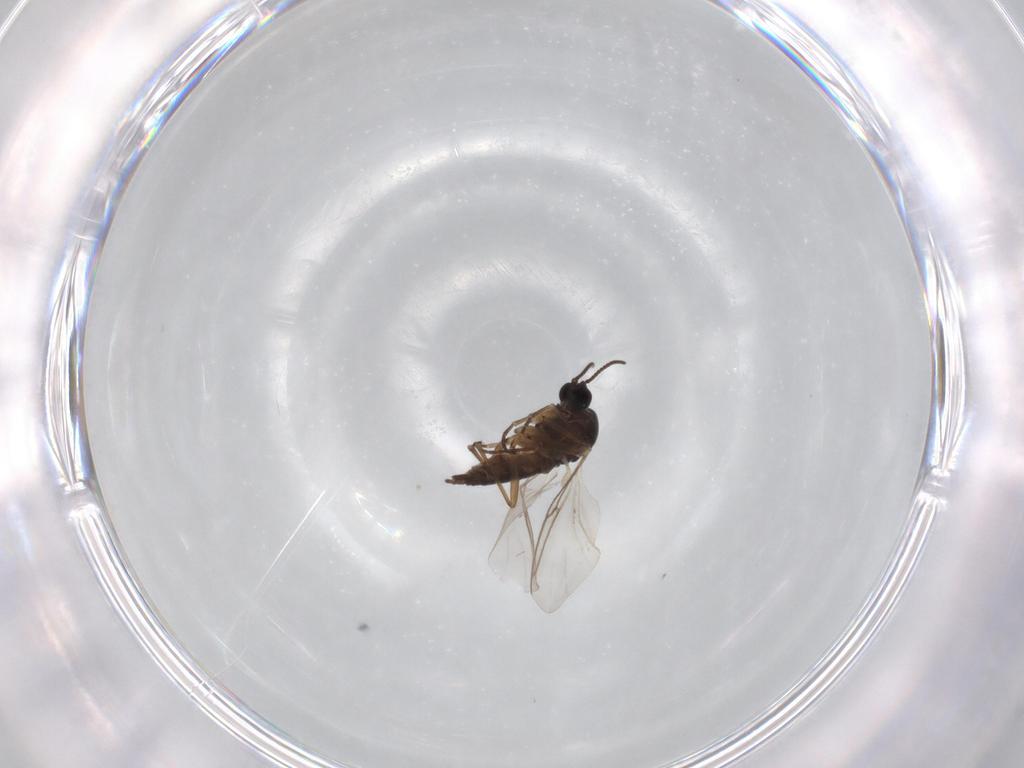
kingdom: Animalia
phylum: Arthropoda
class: Insecta
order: Diptera
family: Sciaridae
